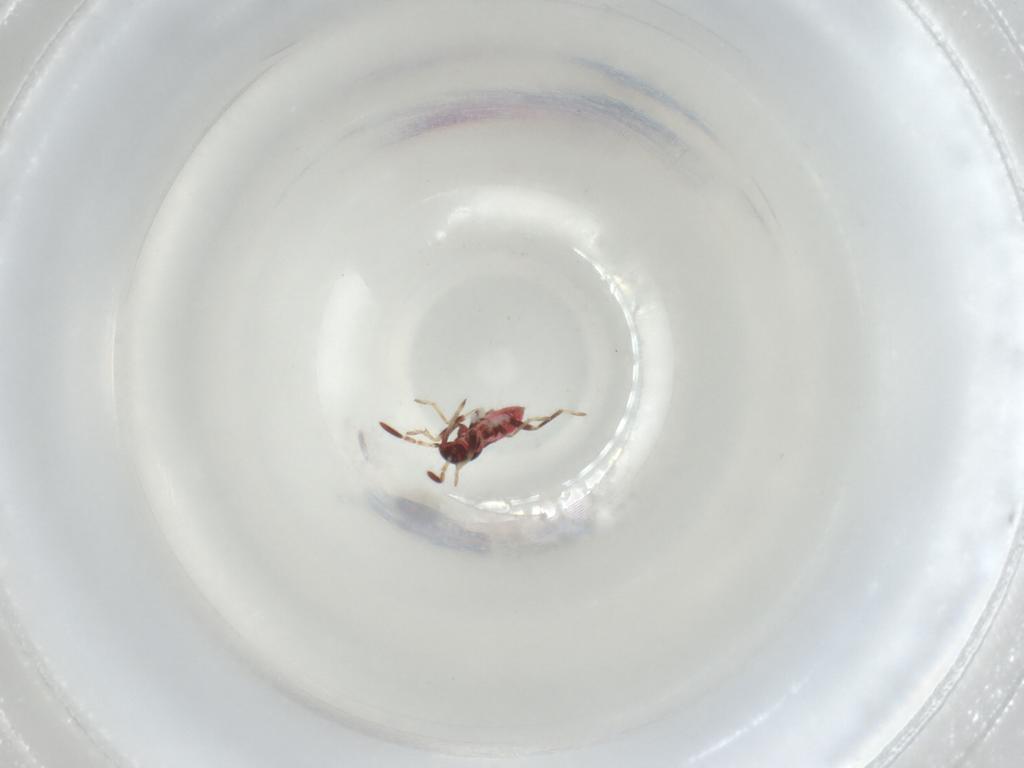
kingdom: Animalia
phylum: Arthropoda
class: Insecta
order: Hemiptera
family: Rhyparochromidae
